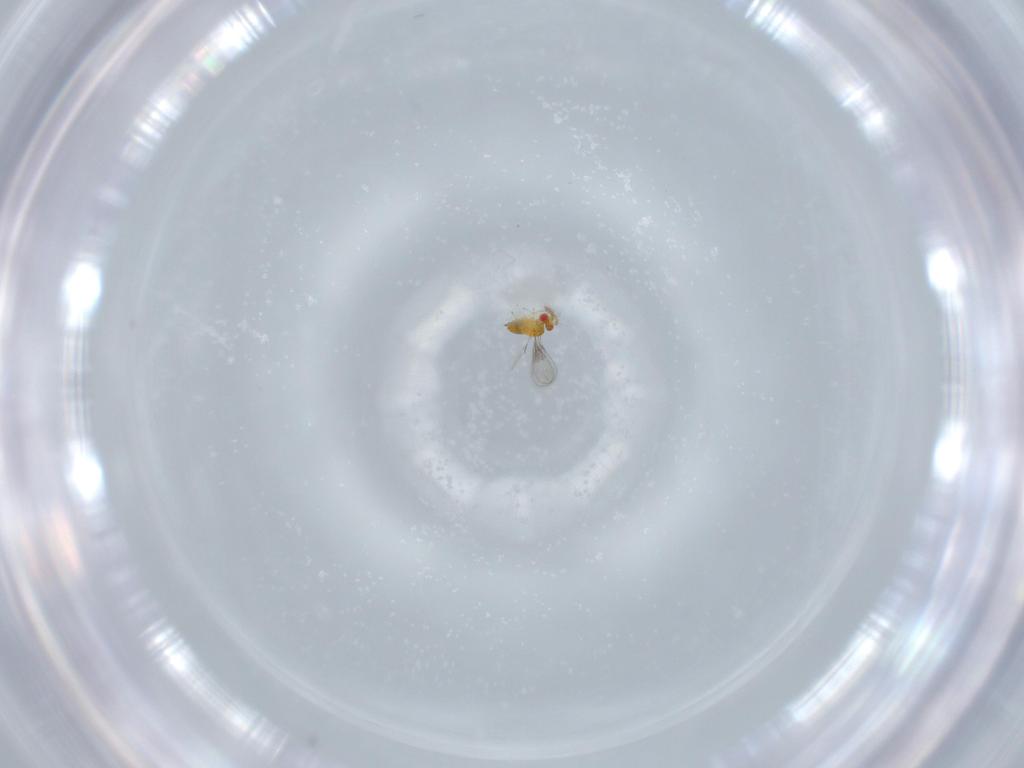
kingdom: Animalia
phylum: Arthropoda
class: Insecta
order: Hymenoptera
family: Trichogrammatidae
